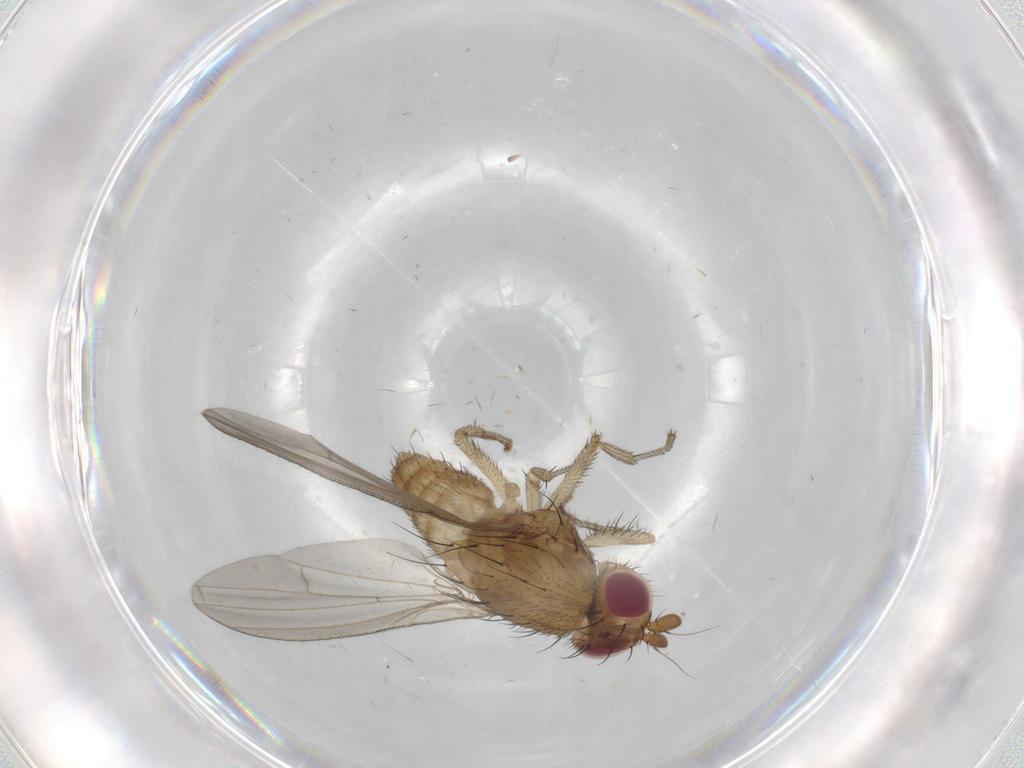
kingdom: Animalia
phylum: Arthropoda
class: Insecta
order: Diptera
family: Lauxaniidae
